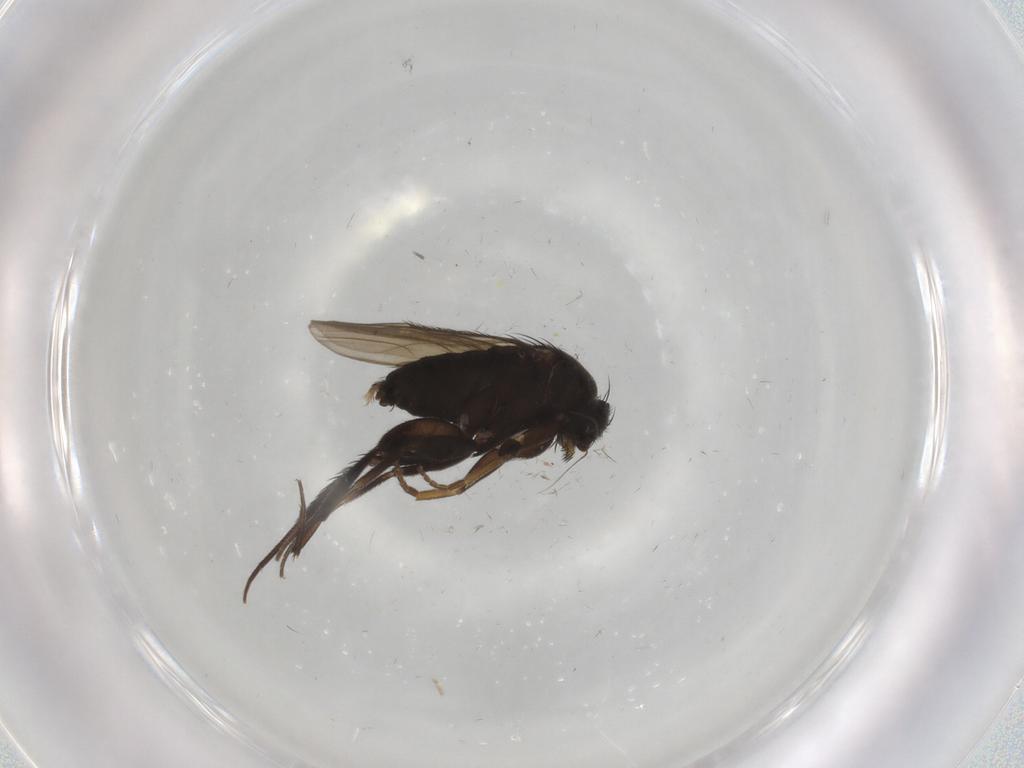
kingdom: Animalia
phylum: Arthropoda
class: Insecta
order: Diptera
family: Phoridae
